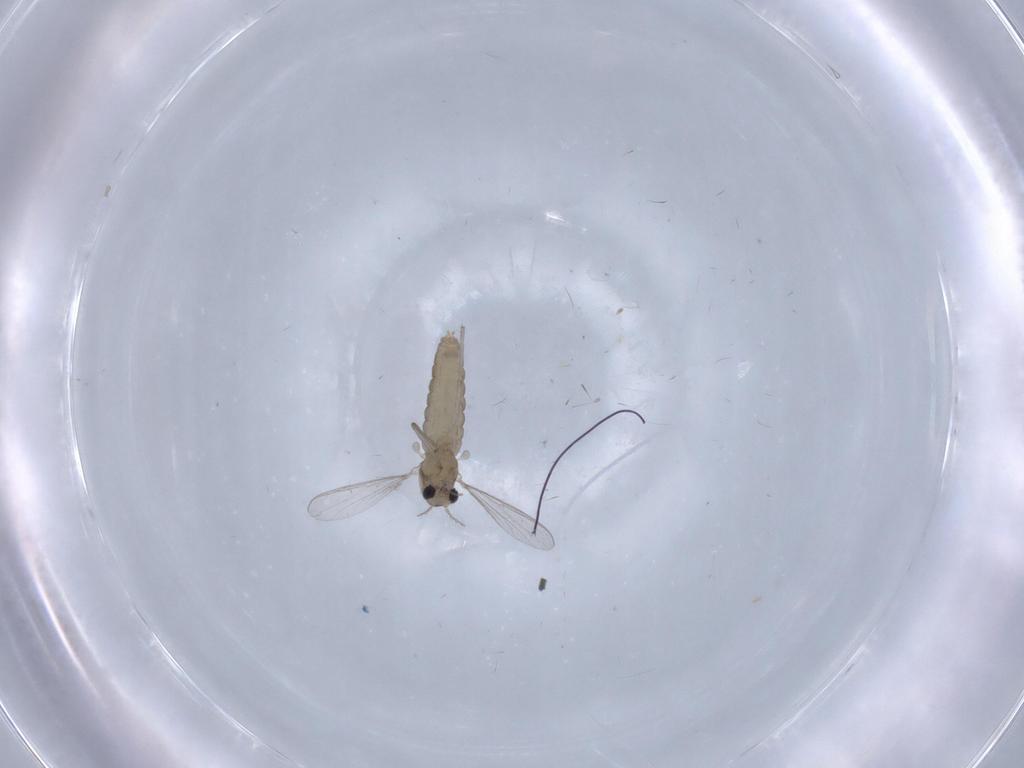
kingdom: Animalia
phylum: Arthropoda
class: Insecta
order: Diptera
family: Chironomidae
